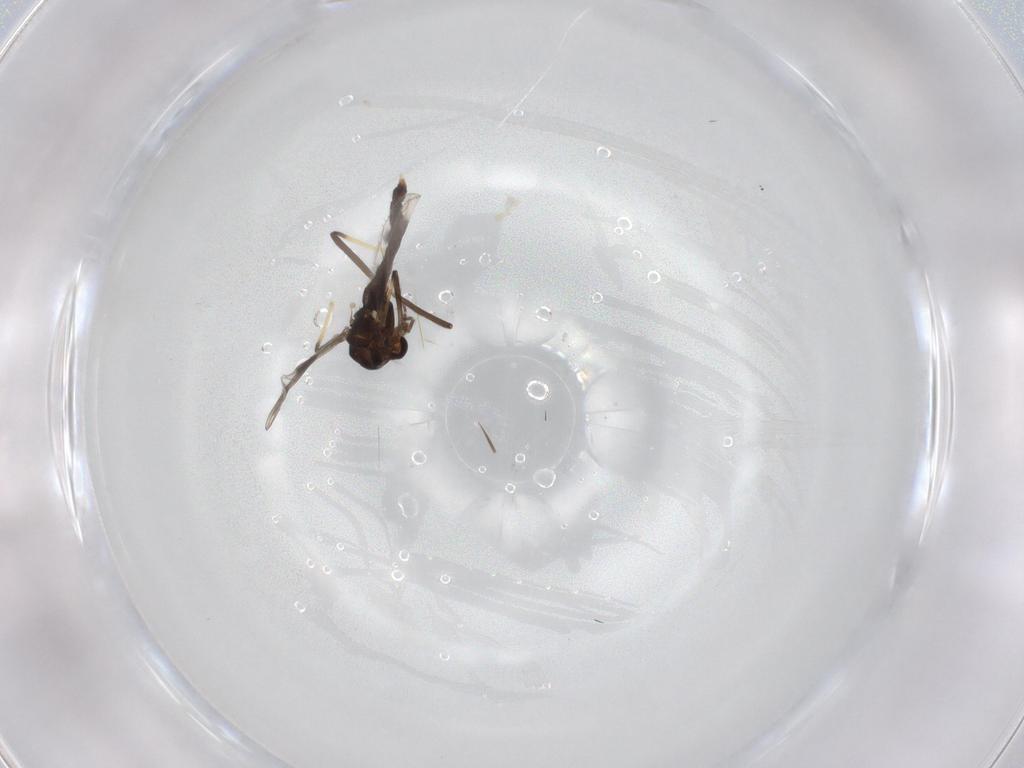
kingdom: Animalia
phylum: Arthropoda
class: Insecta
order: Diptera
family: Chironomidae
